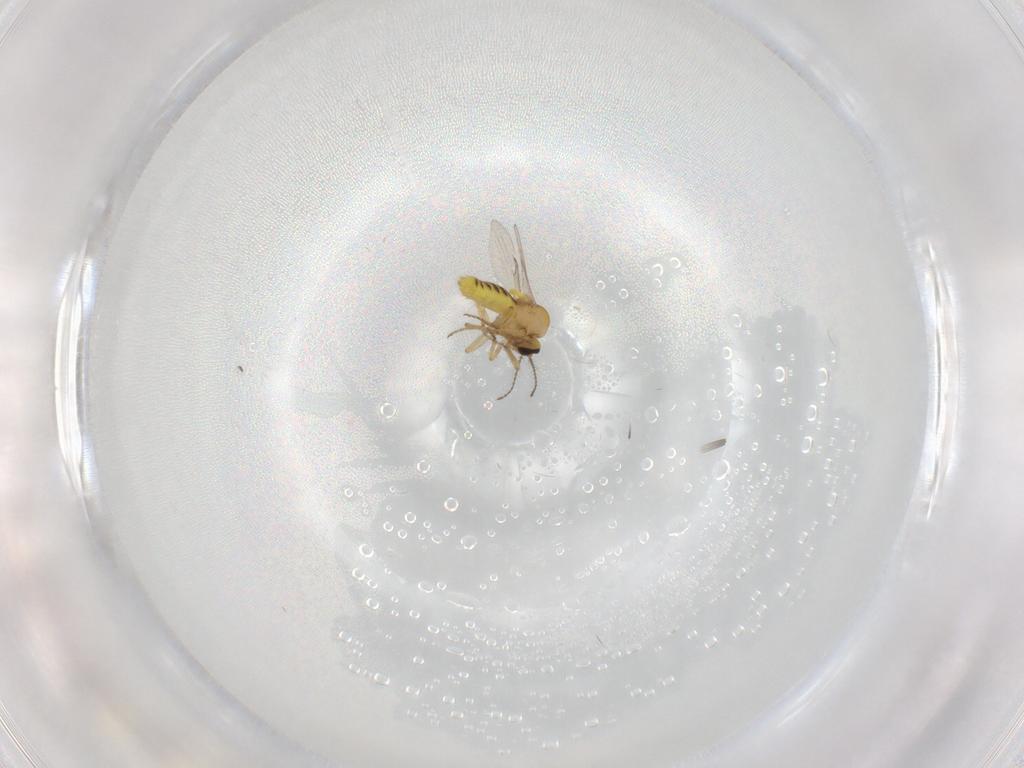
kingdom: Animalia
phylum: Arthropoda
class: Insecta
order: Diptera
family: Ceratopogonidae
